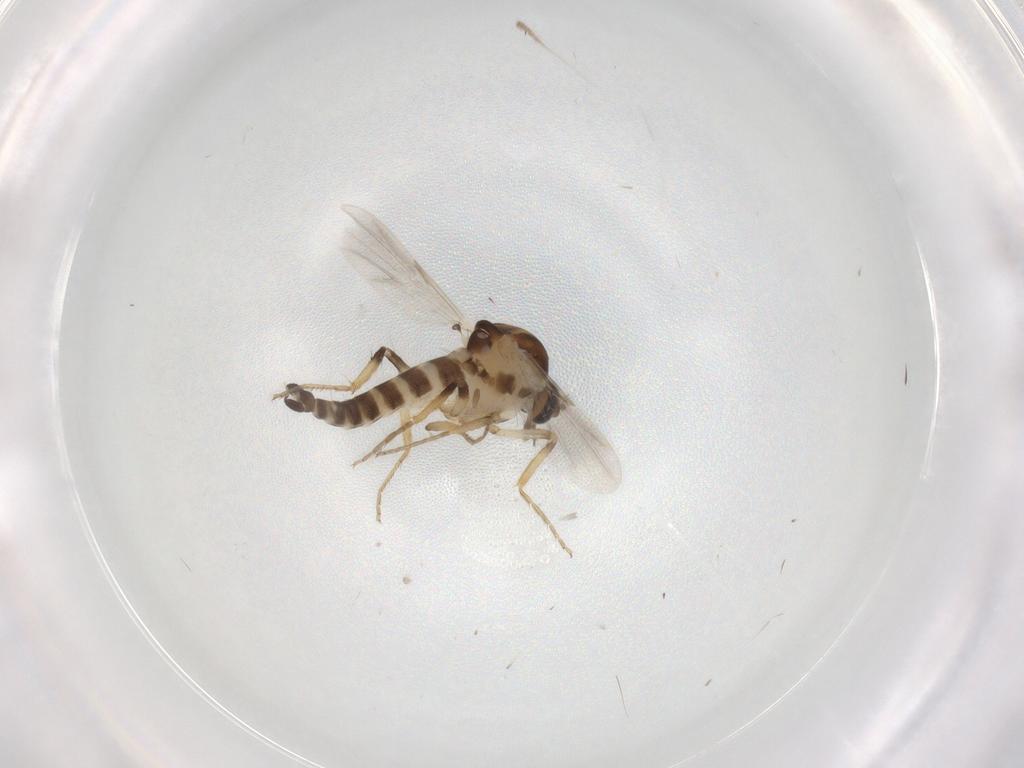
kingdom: Animalia
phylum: Arthropoda
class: Insecta
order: Diptera
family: Ceratopogonidae
